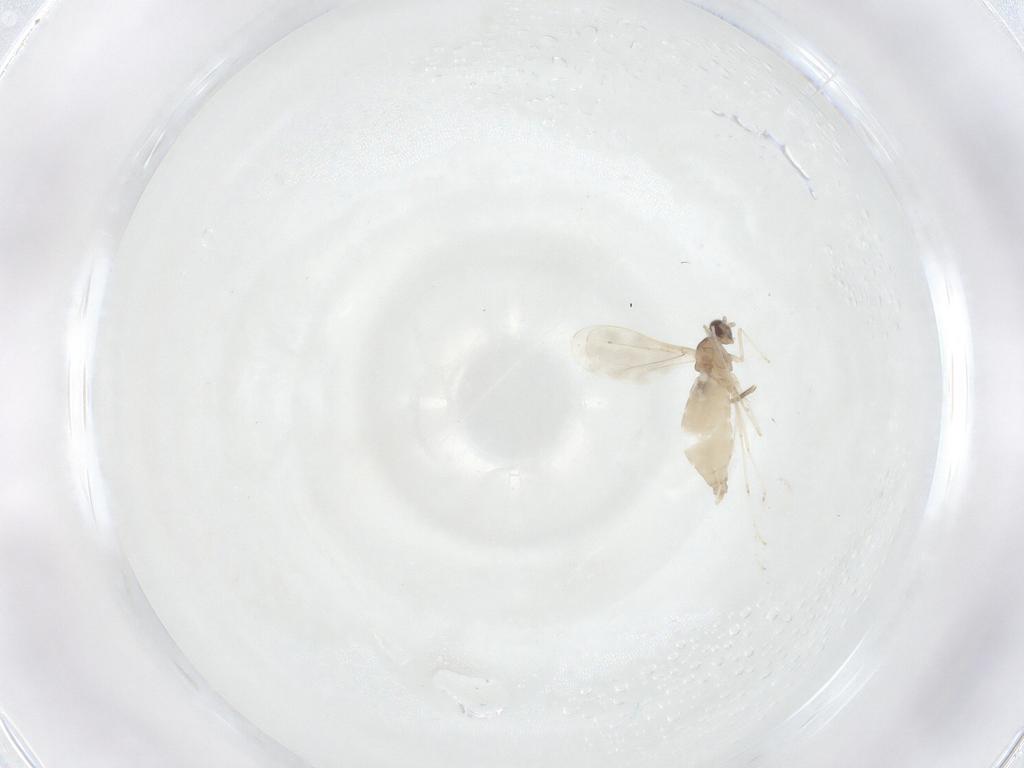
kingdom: Animalia
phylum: Arthropoda
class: Insecta
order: Diptera
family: Cecidomyiidae
